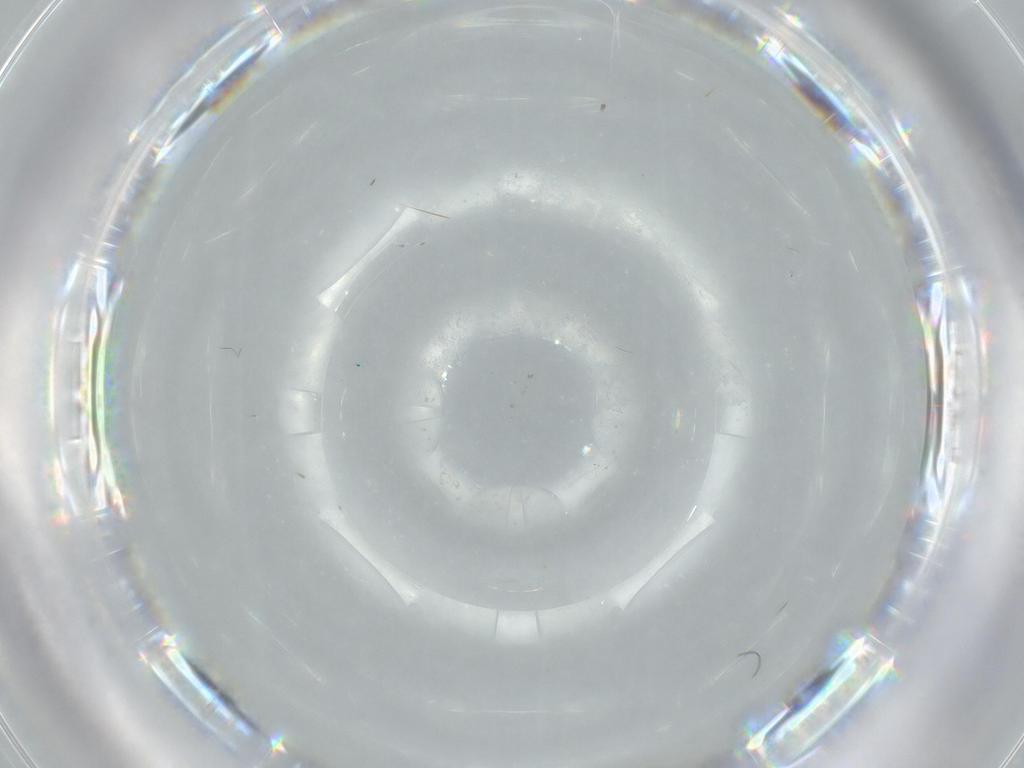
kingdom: Animalia
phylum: Arthropoda
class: Insecta
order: Diptera
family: Cecidomyiidae
